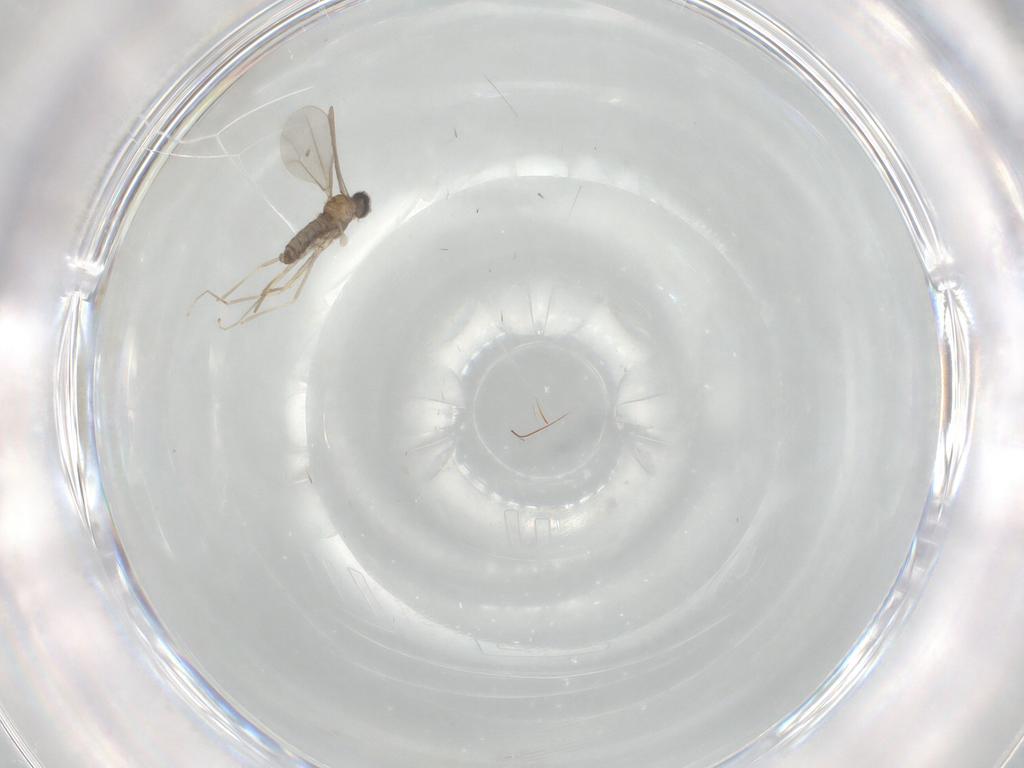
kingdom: Animalia
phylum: Arthropoda
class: Insecta
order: Diptera
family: Cecidomyiidae
